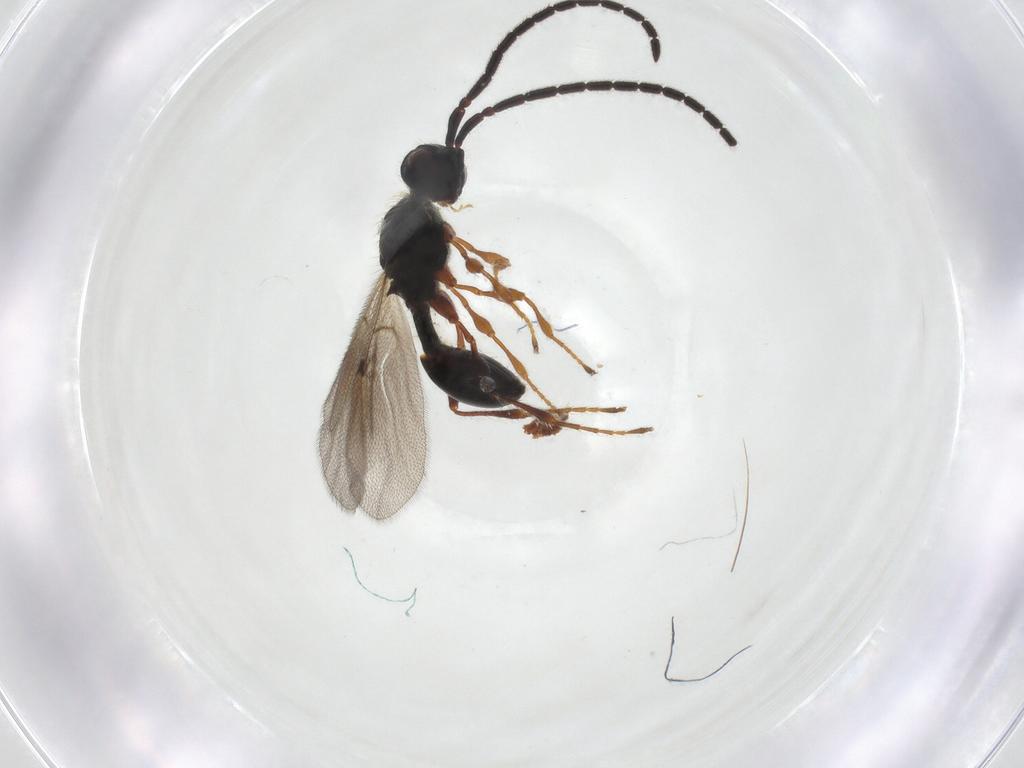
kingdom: Animalia
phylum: Arthropoda
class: Insecta
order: Hymenoptera
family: Diapriidae
